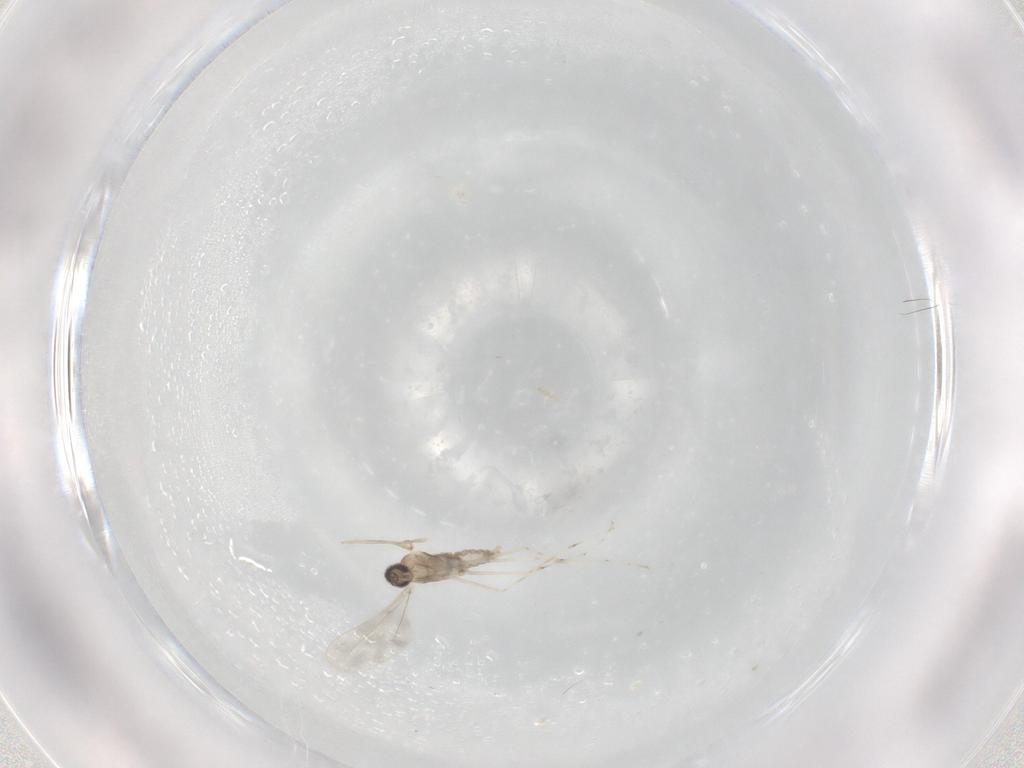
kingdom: Animalia
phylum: Arthropoda
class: Insecta
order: Diptera
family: Cecidomyiidae
